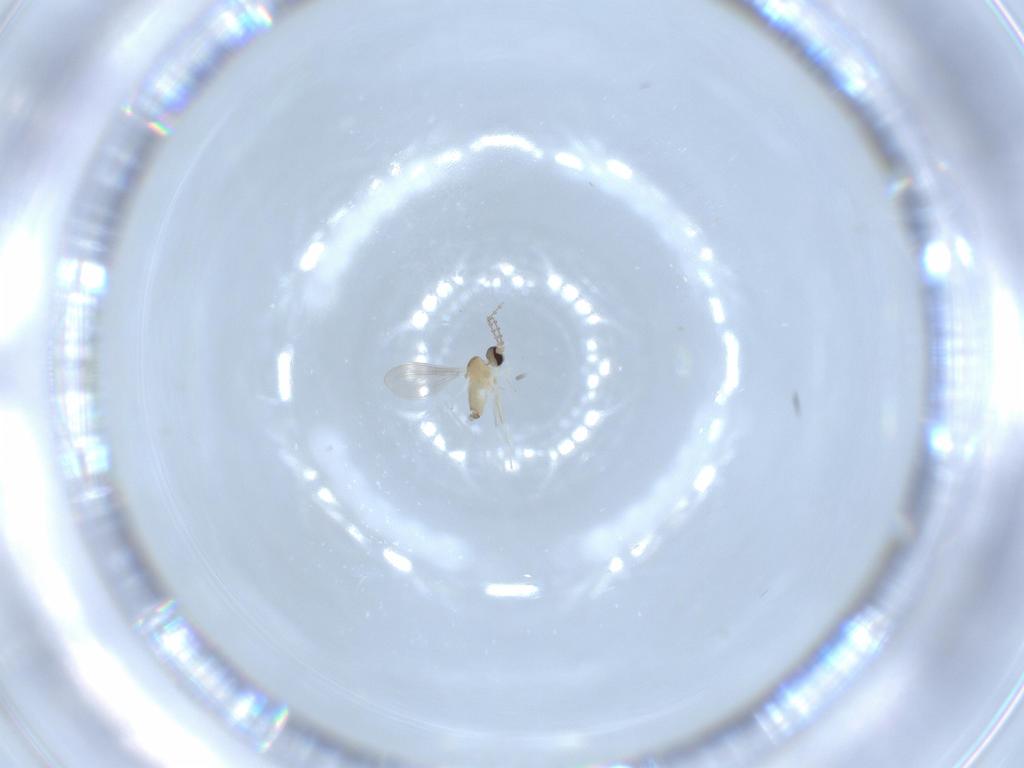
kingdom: Animalia
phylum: Arthropoda
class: Insecta
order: Diptera
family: Cecidomyiidae
